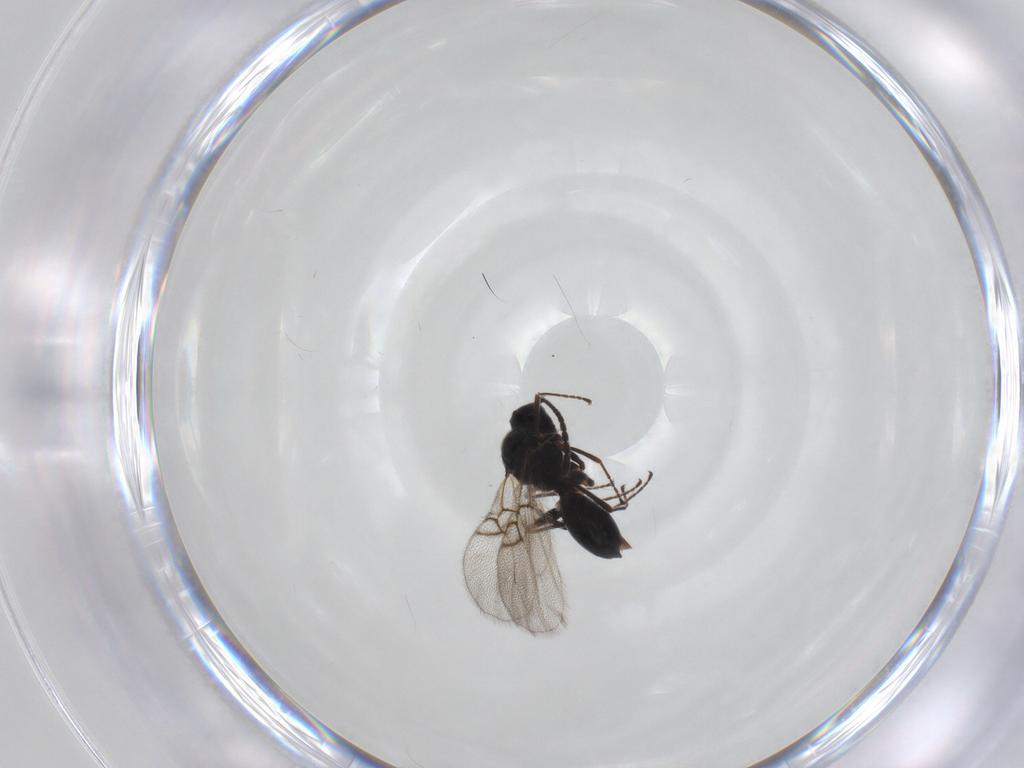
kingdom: Animalia
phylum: Arthropoda
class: Insecta
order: Hymenoptera
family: Figitidae
